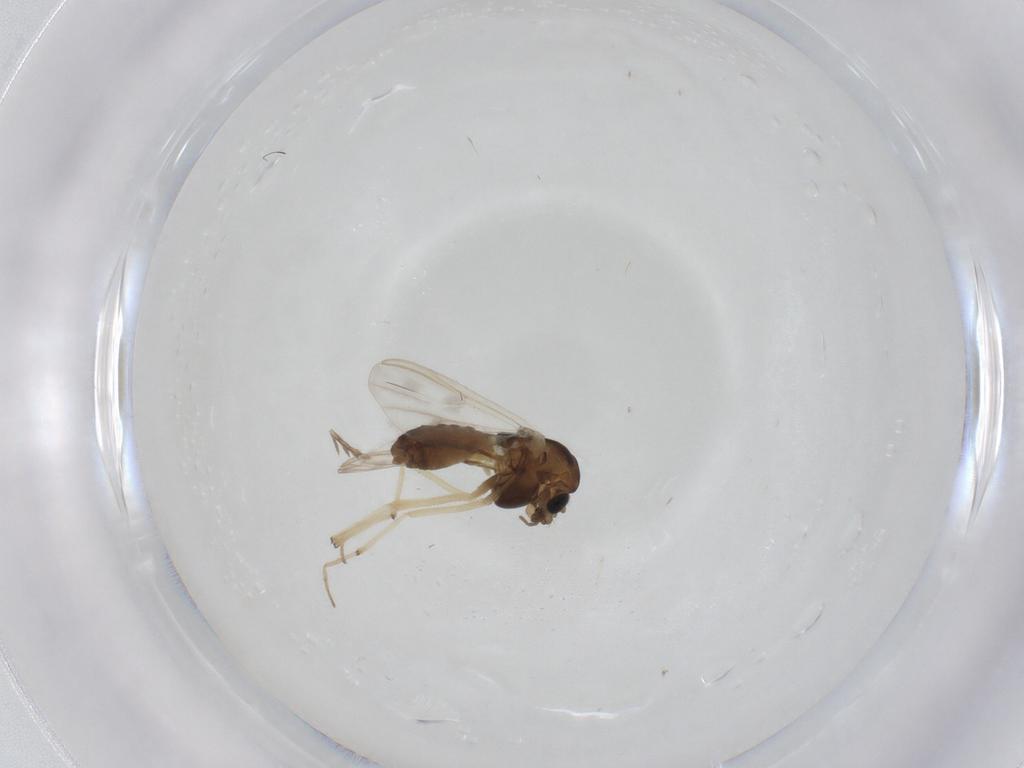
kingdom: Animalia
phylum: Arthropoda
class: Insecta
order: Diptera
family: Chironomidae
